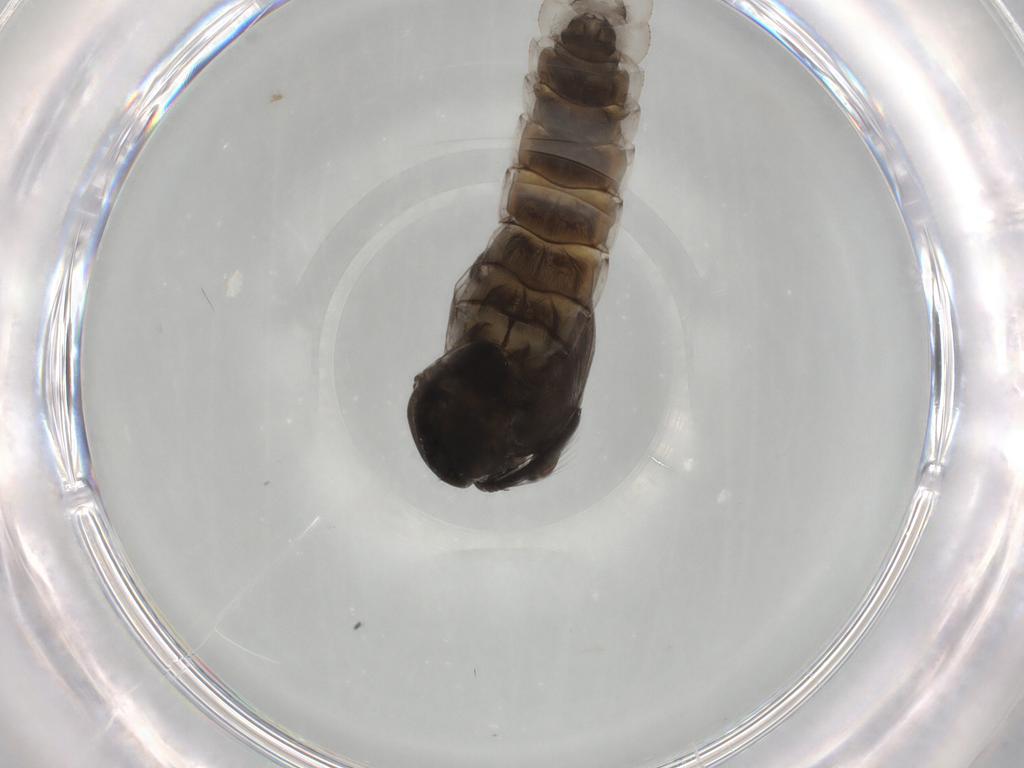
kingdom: Animalia
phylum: Arthropoda
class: Insecta
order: Diptera
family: Chironomidae
